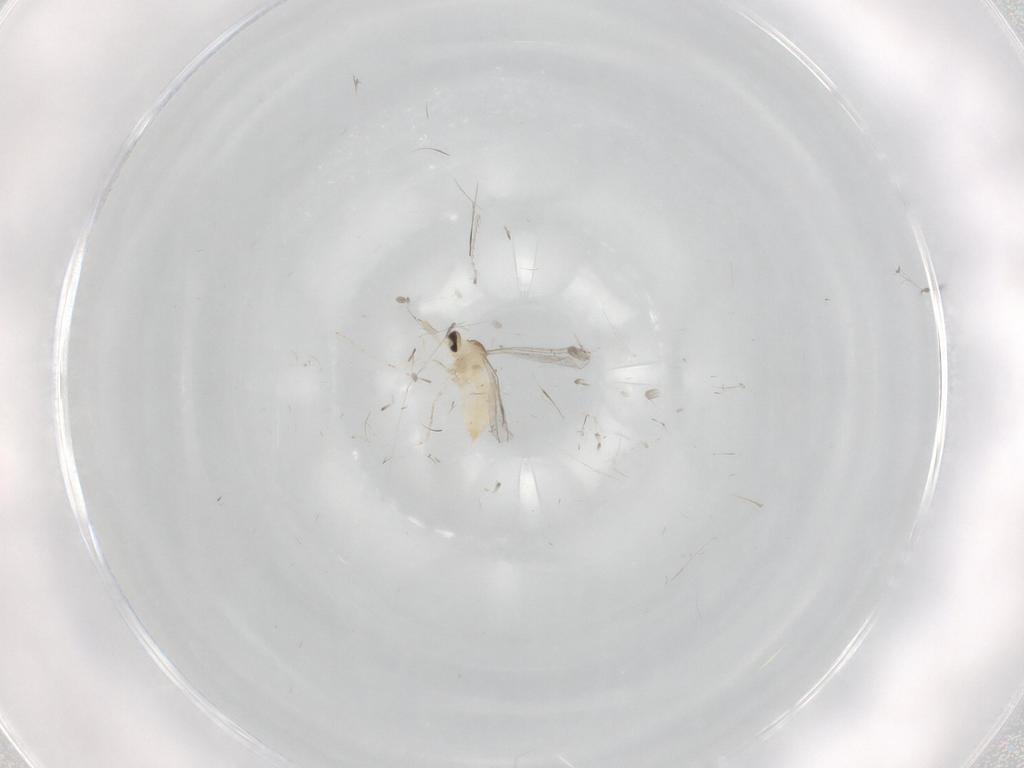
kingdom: Animalia
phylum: Arthropoda
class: Insecta
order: Diptera
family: Cecidomyiidae
